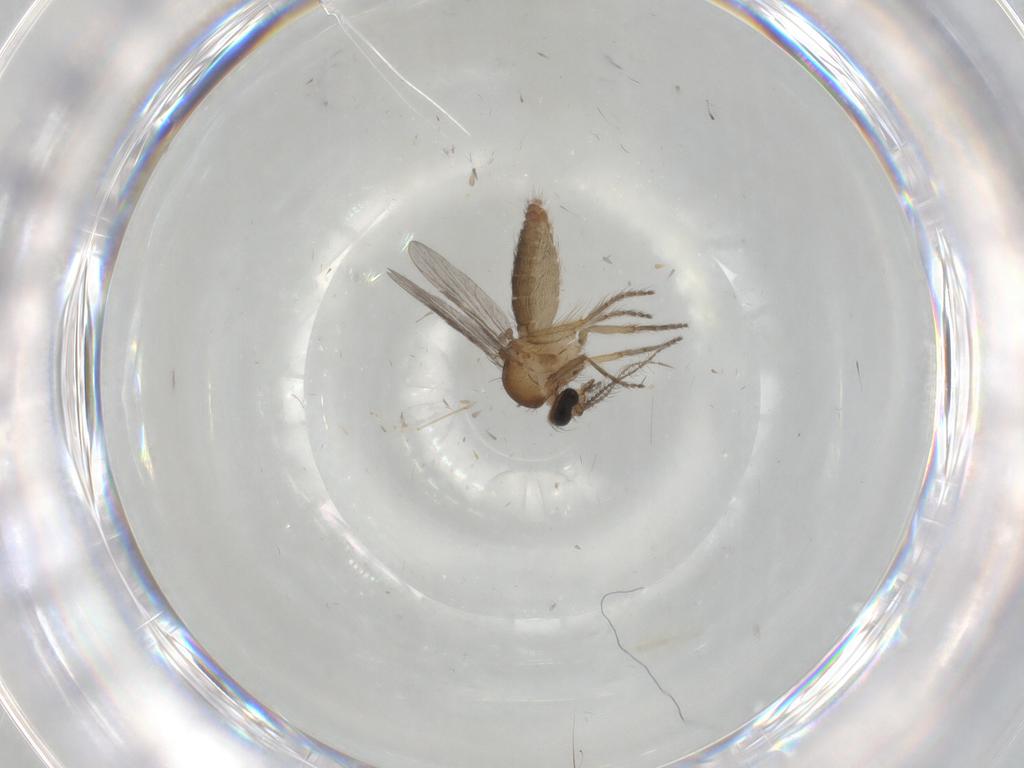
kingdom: Animalia
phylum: Arthropoda
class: Insecta
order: Diptera
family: Ceratopogonidae
